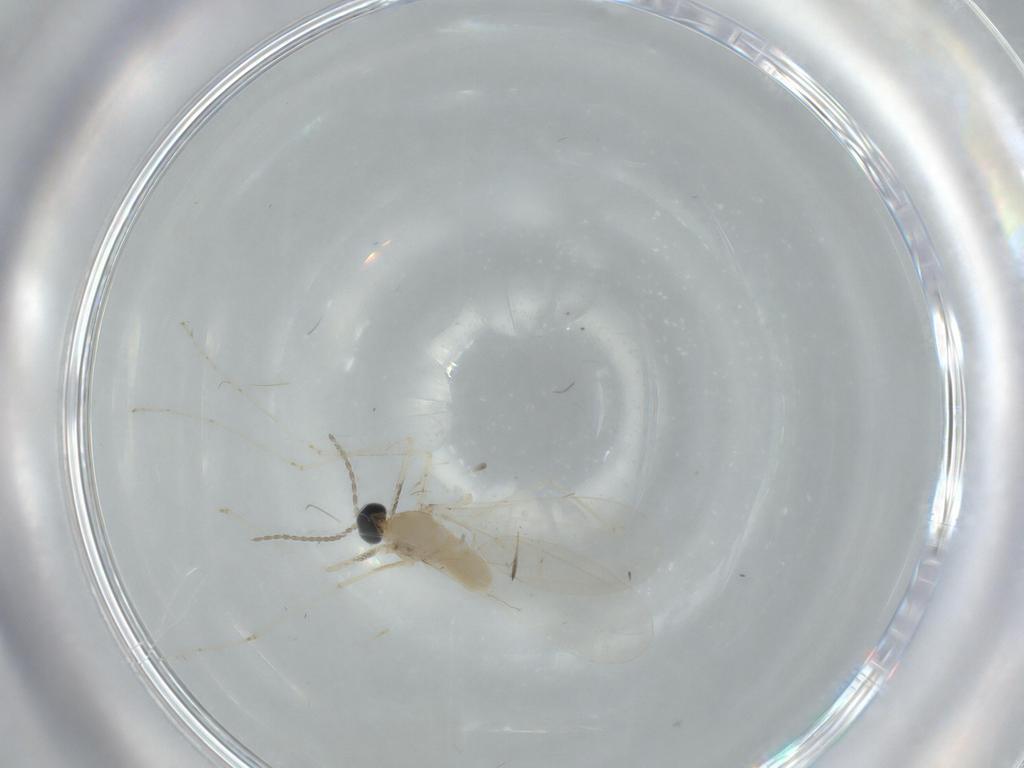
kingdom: Animalia
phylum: Arthropoda
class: Insecta
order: Diptera
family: Cecidomyiidae
